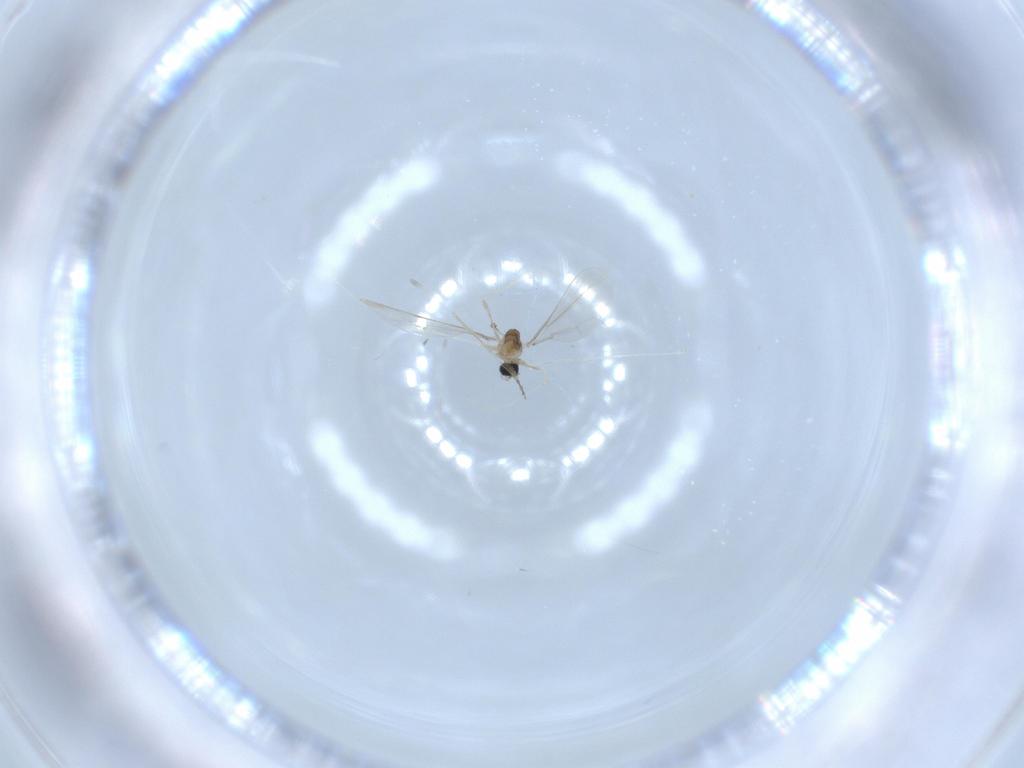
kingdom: Animalia
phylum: Arthropoda
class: Insecta
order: Diptera
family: Cecidomyiidae
